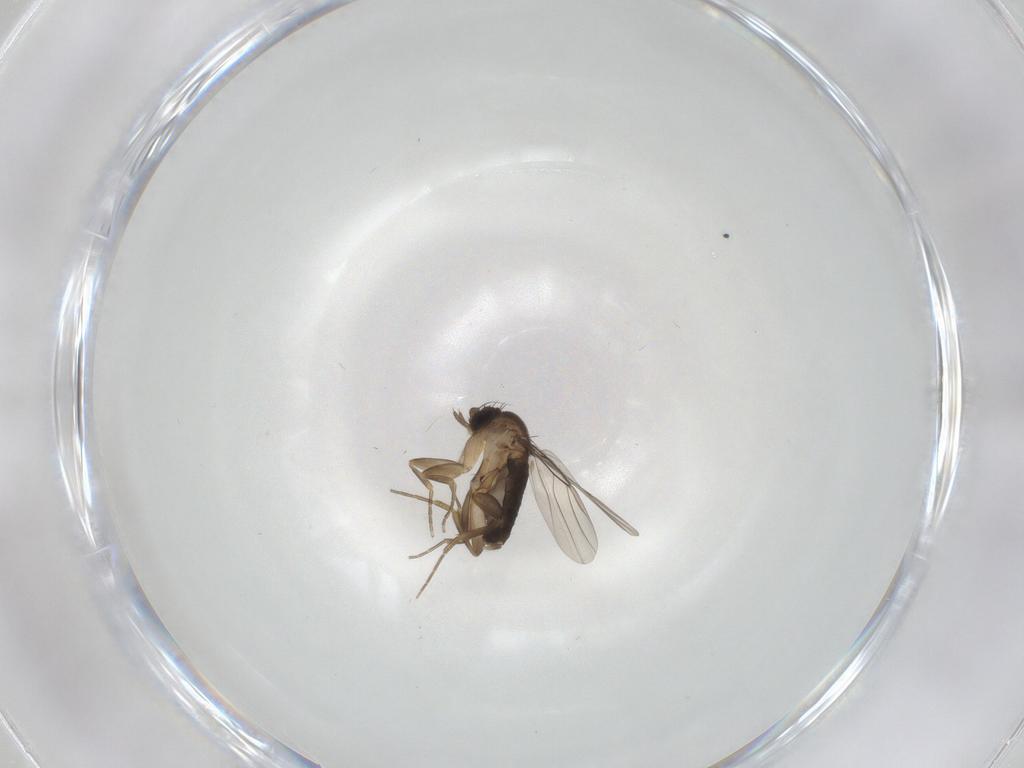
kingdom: Animalia
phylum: Arthropoda
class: Insecta
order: Diptera
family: Phoridae
